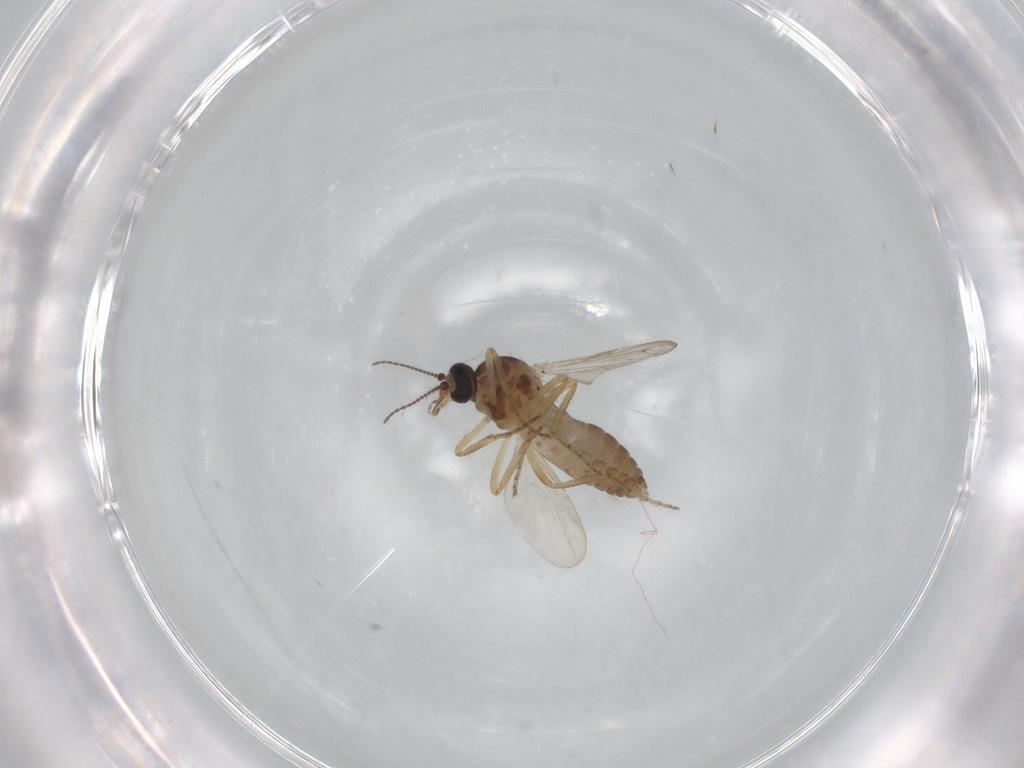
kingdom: Animalia
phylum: Arthropoda
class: Insecta
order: Diptera
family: Ceratopogonidae
